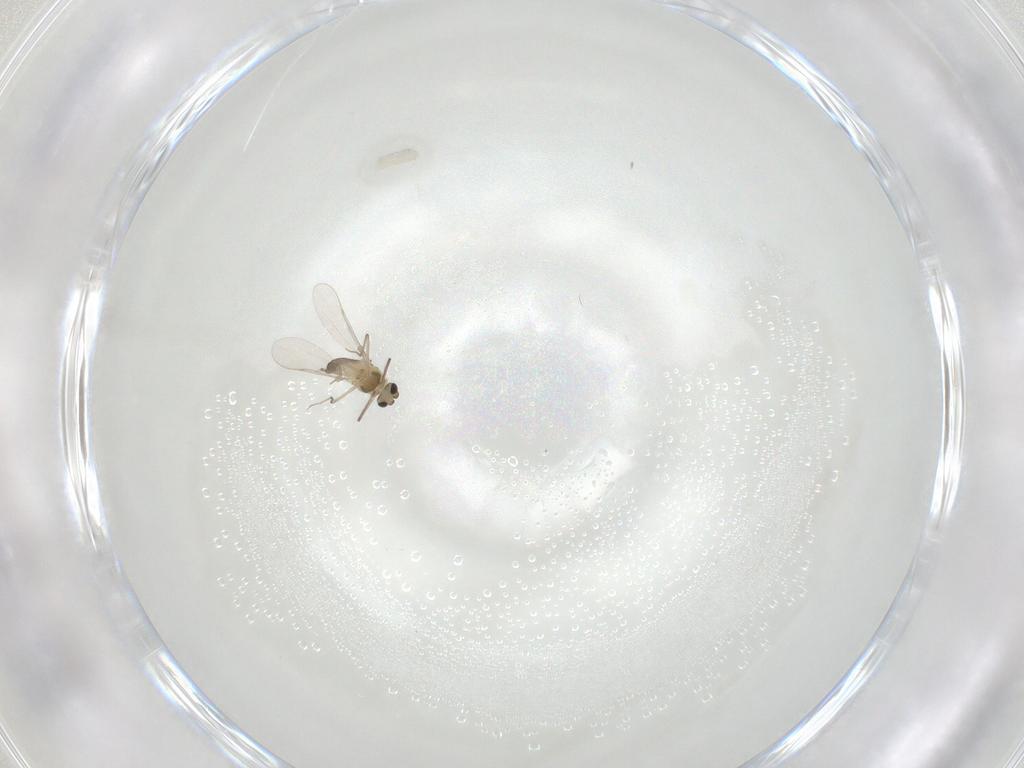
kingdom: Animalia
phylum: Arthropoda
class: Insecta
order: Diptera
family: Chironomidae
